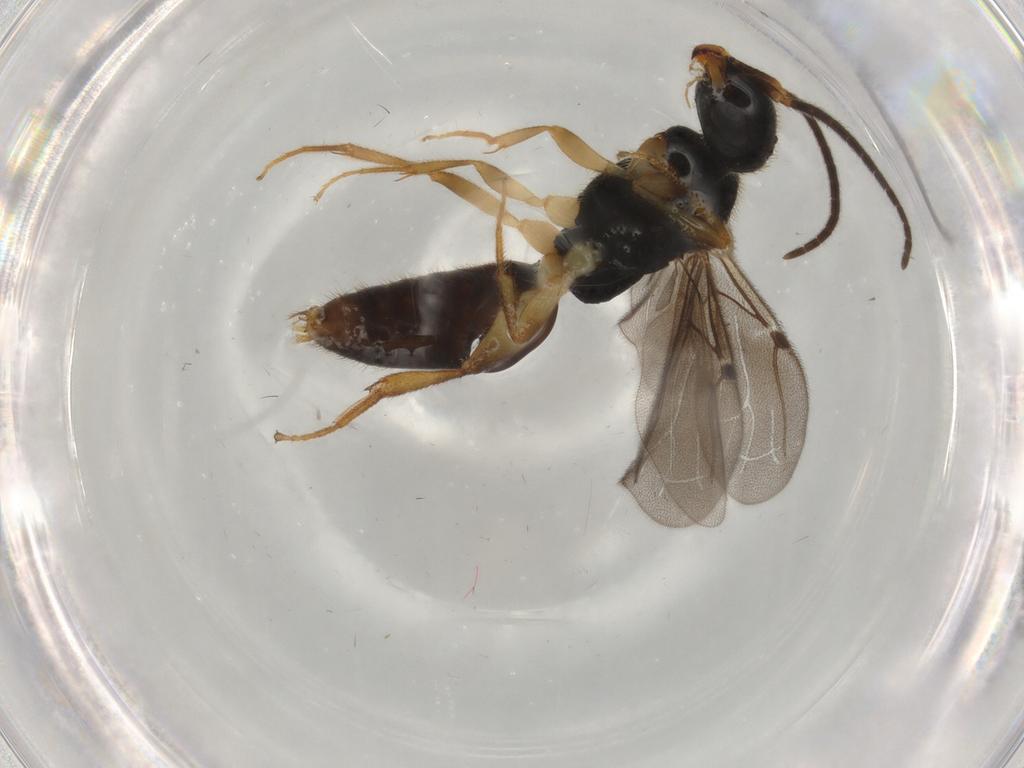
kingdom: Animalia
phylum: Arthropoda
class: Insecta
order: Hymenoptera
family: Bethylidae
